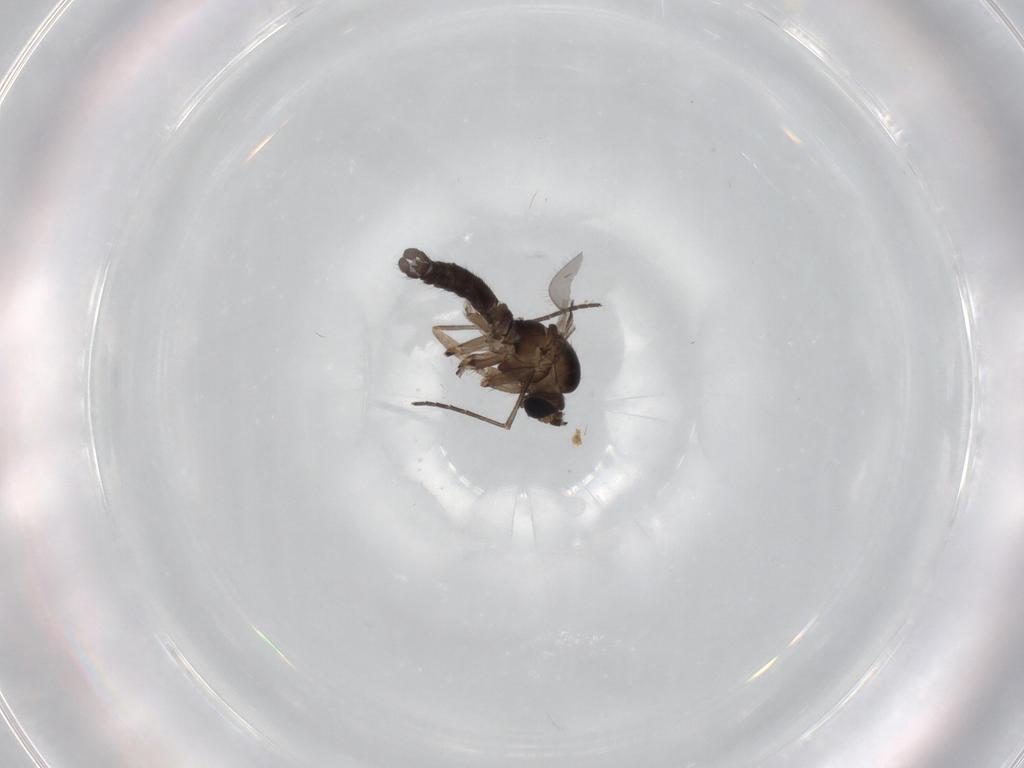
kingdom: Animalia
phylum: Arthropoda
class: Insecta
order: Diptera
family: Sciaridae
